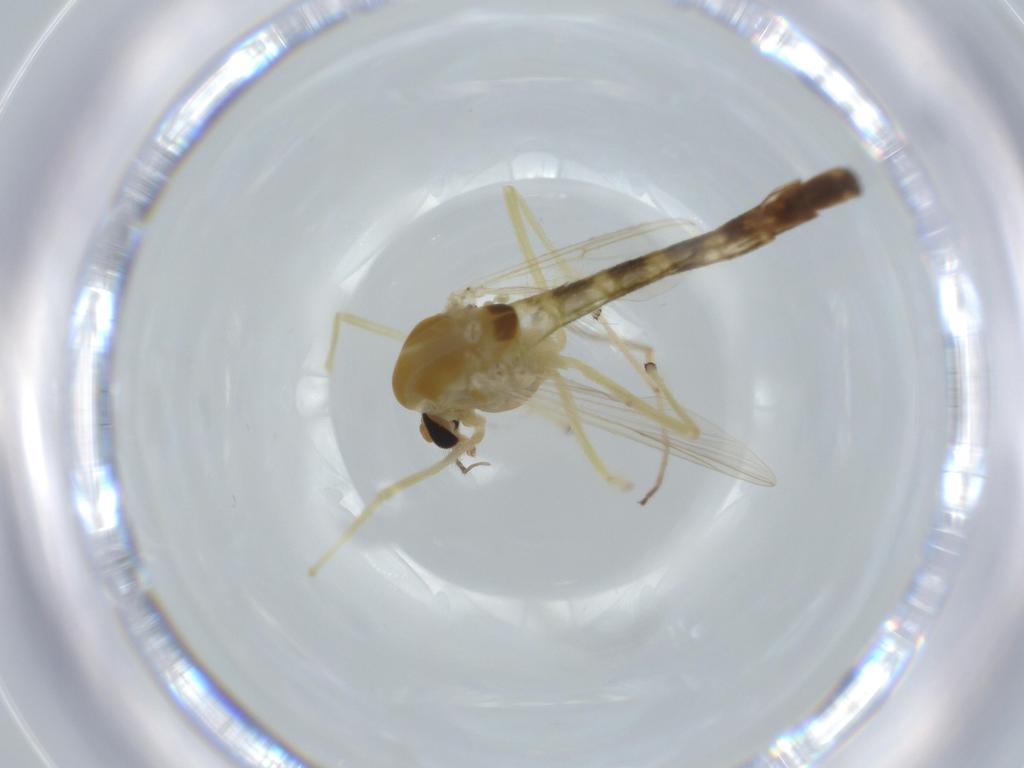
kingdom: Animalia
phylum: Arthropoda
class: Insecta
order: Diptera
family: Chironomidae
